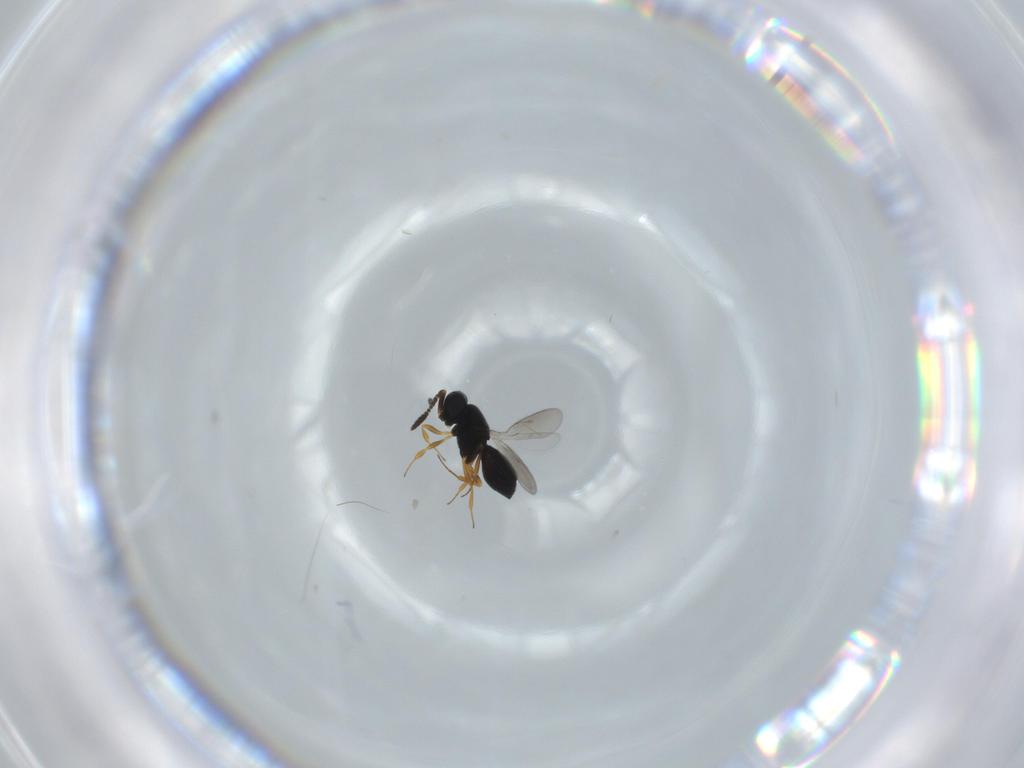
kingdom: Animalia
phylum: Arthropoda
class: Insecta
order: Hymenoptera
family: Scelionidae
